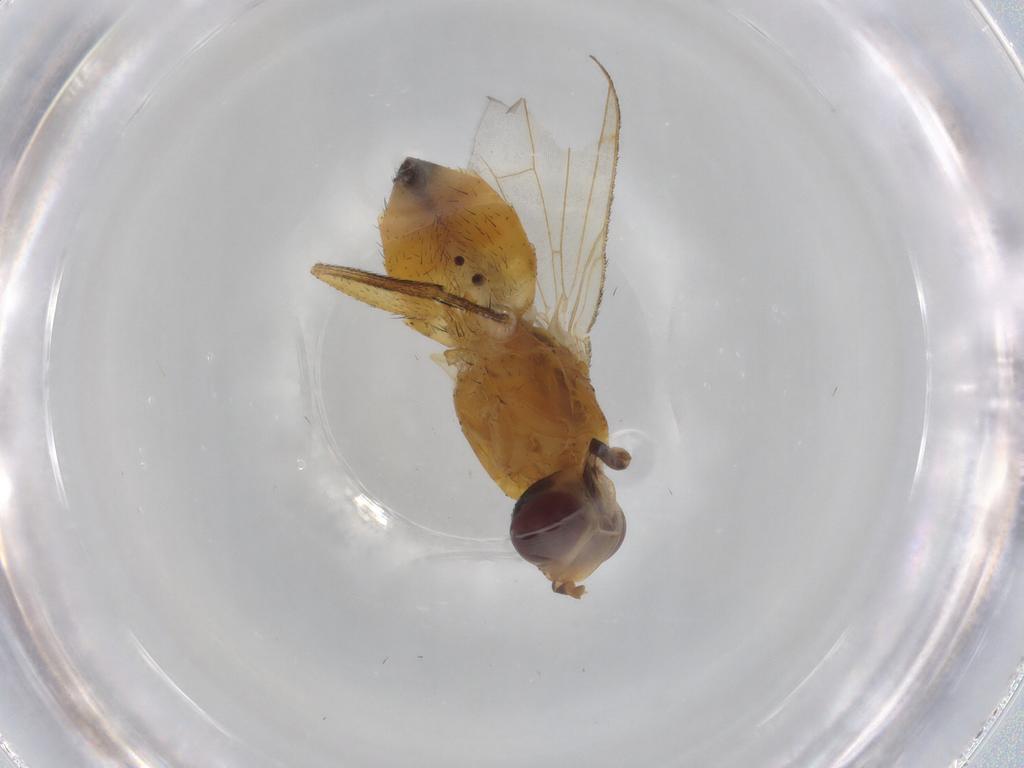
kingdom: Animalia
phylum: Arthropoda
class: Insecta
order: Diptera
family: Muscidae
